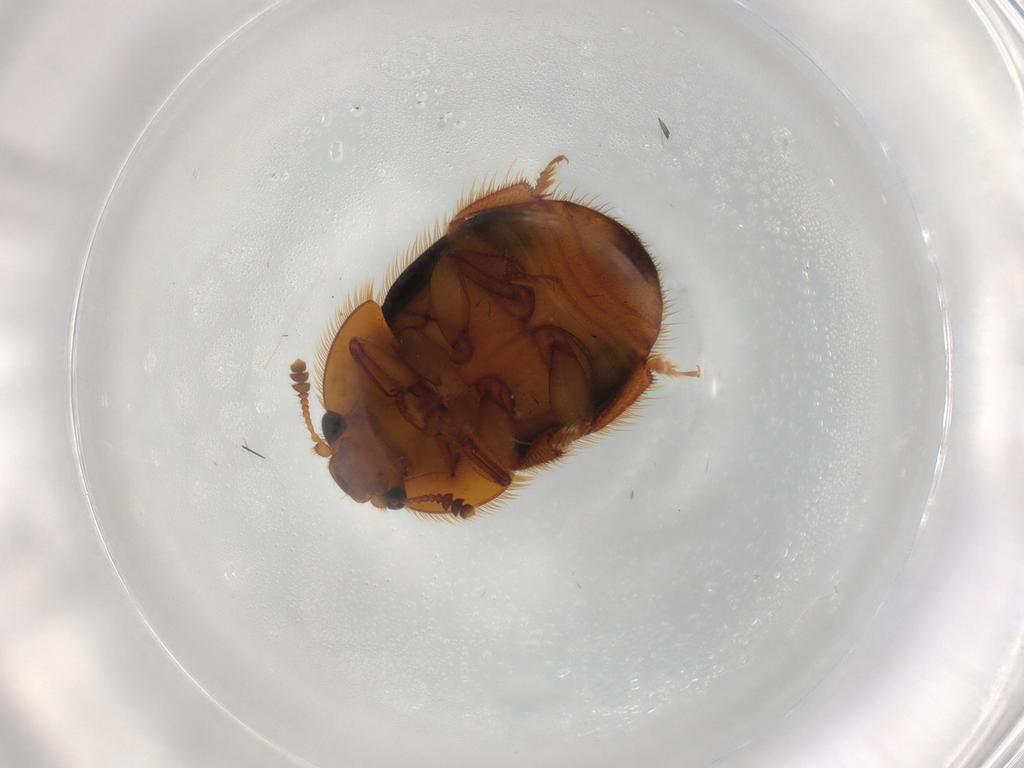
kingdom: Animalia
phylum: Arthropoda
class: Insecta
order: Coleoptera
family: Nitidulidae
